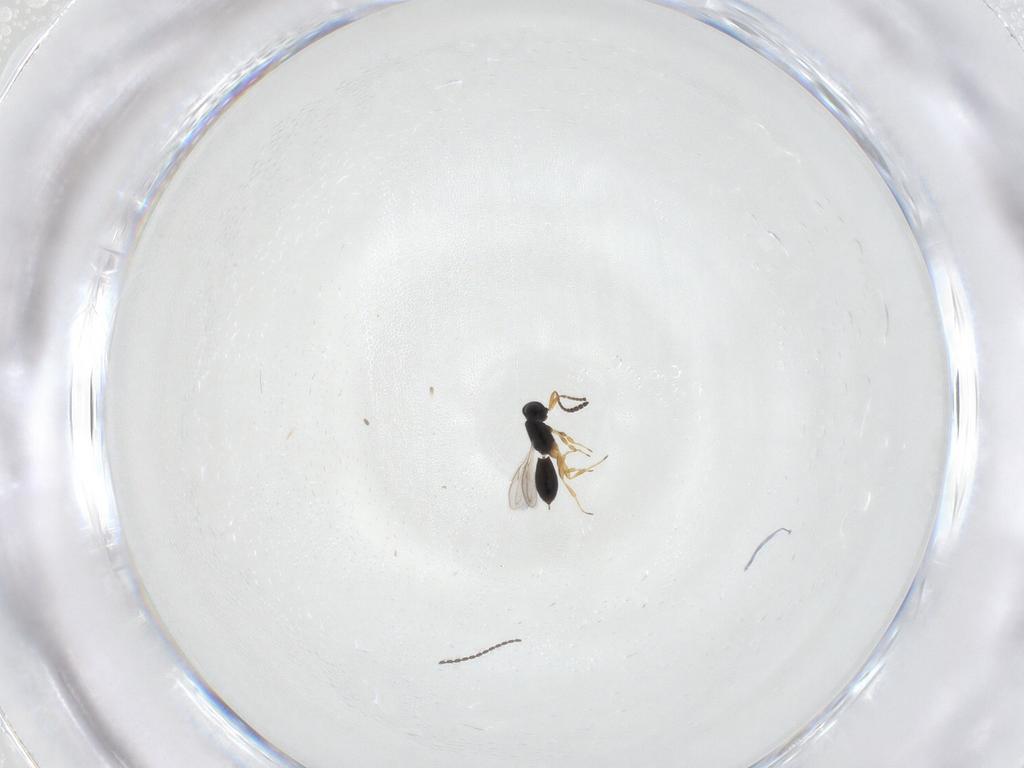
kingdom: Animalia
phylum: Arthropoda
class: Insecta
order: Hymenoptera
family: Scelionidae
